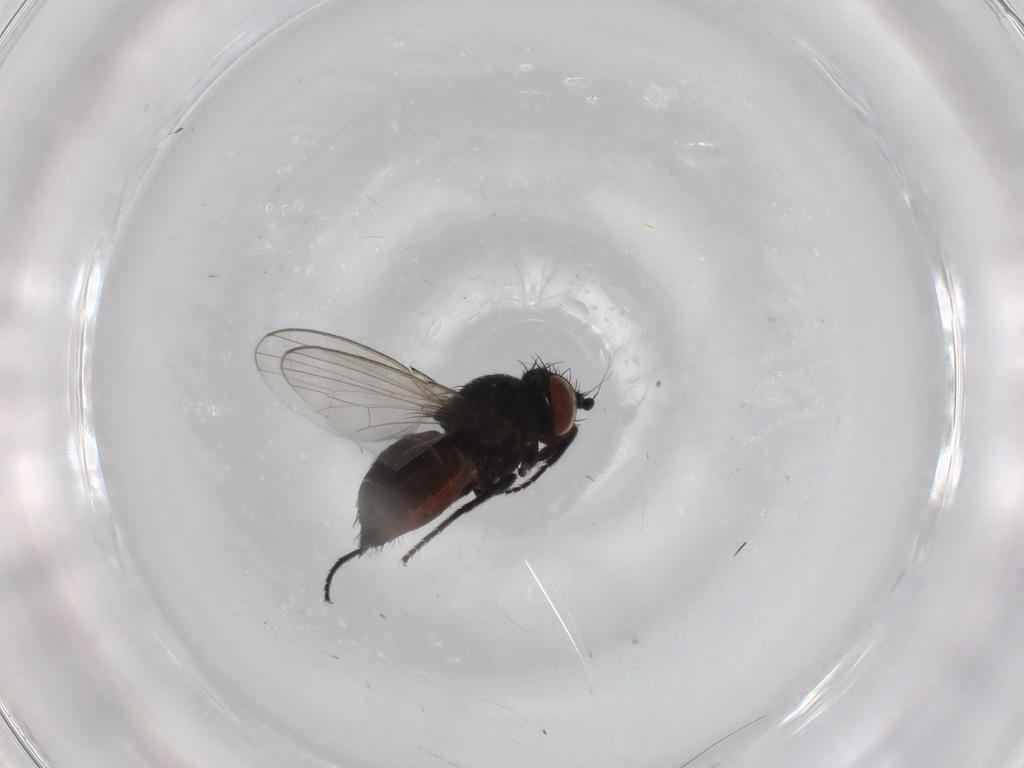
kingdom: Animalia
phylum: Arthropoda
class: Insecta
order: Diptera
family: Milichiidae
